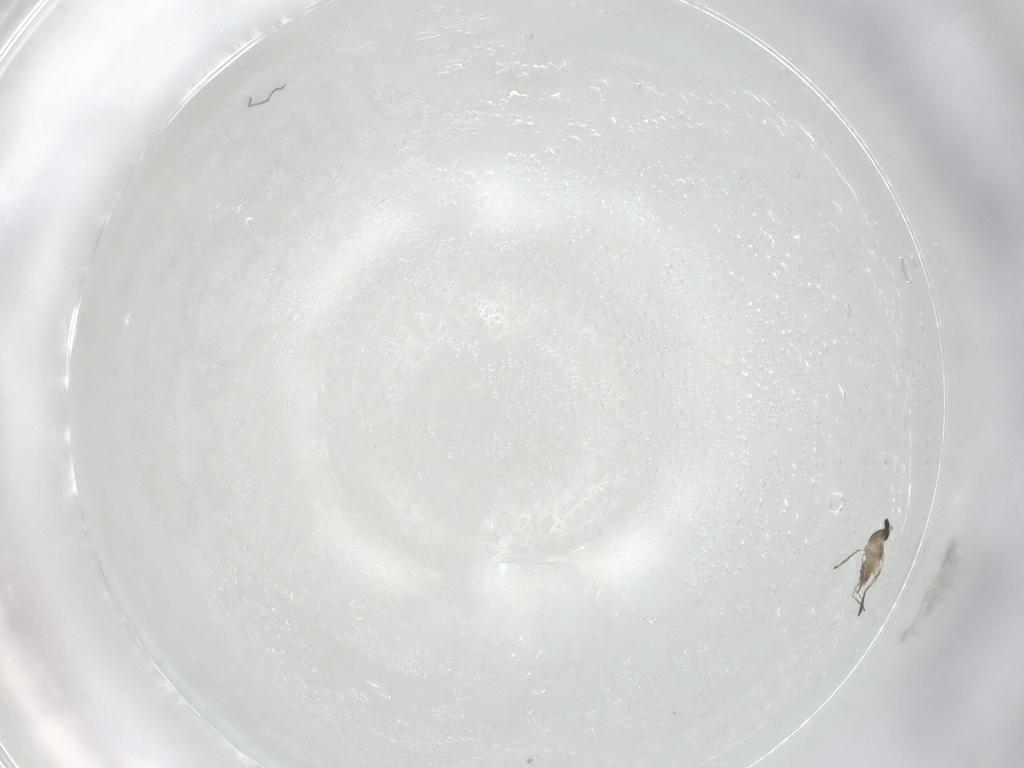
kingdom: Animalia
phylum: Arthropoda
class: Insecta
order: Diptera
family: Cecidomyiidae
